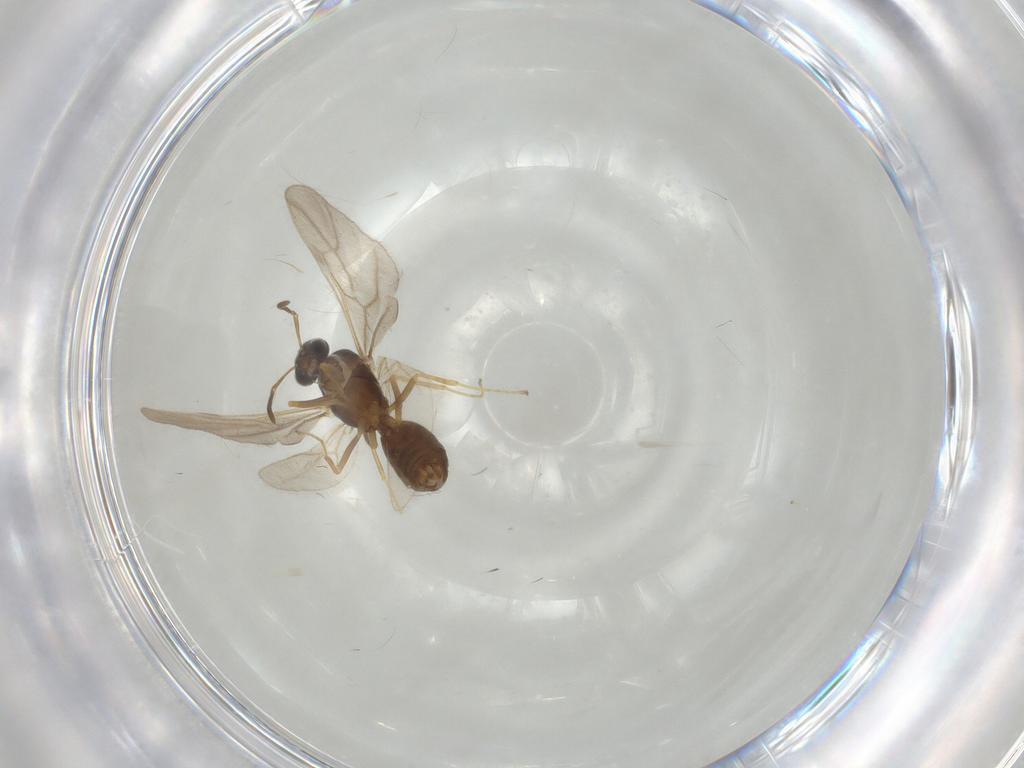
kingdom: Animalia
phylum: Arthropoda
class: Insecta
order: Hymenoptera
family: Formicidae
